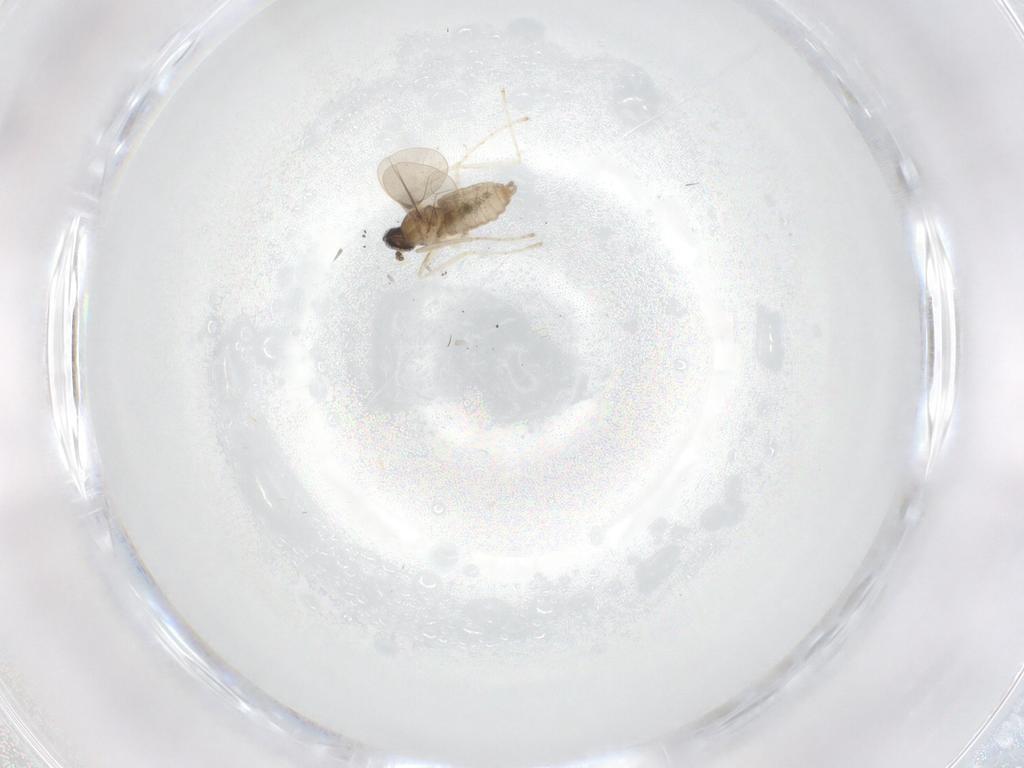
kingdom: Animalia
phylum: Arthropoda
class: Insecta
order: Diptera
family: Cecidomyiidae
